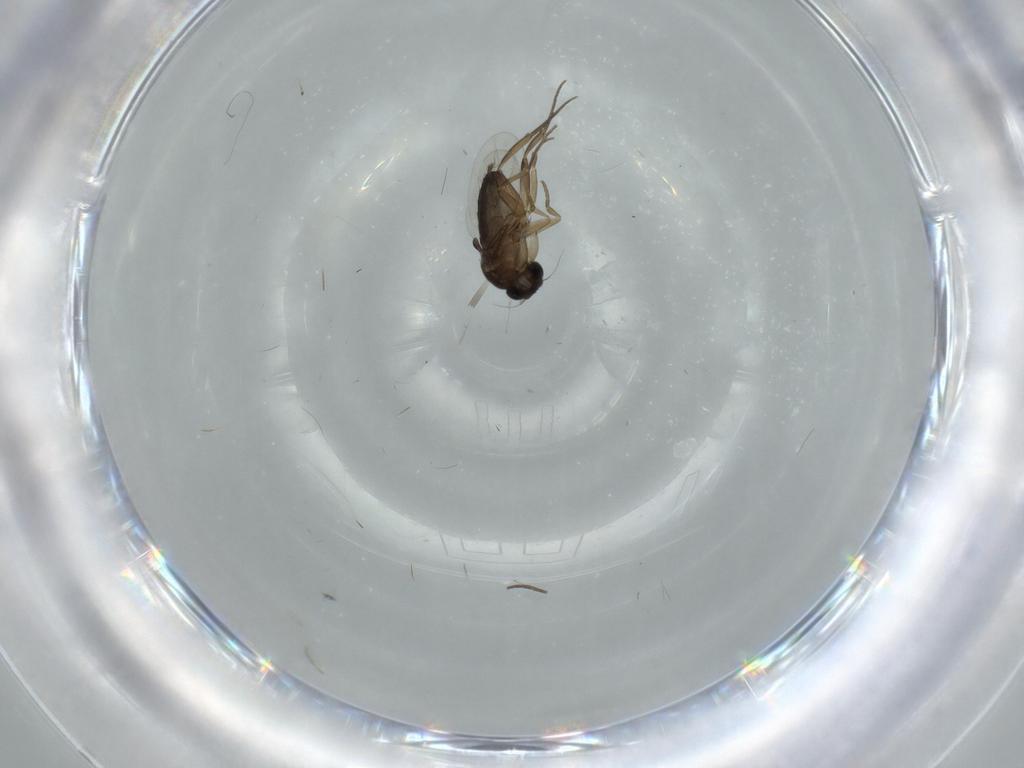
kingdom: Animalia
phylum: Arthropoda
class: Insecta
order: Diptera
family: Phoridae
